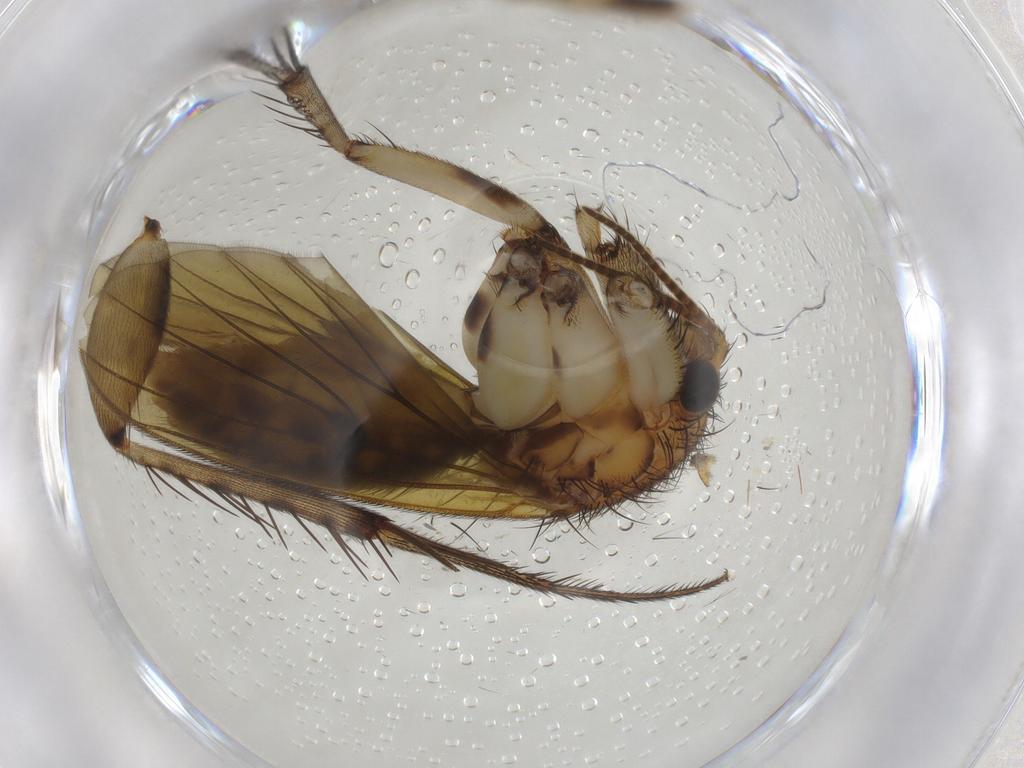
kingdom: Animalia
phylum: Arthropoda
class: Insecta
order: Diptera
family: Mycetophilidae
